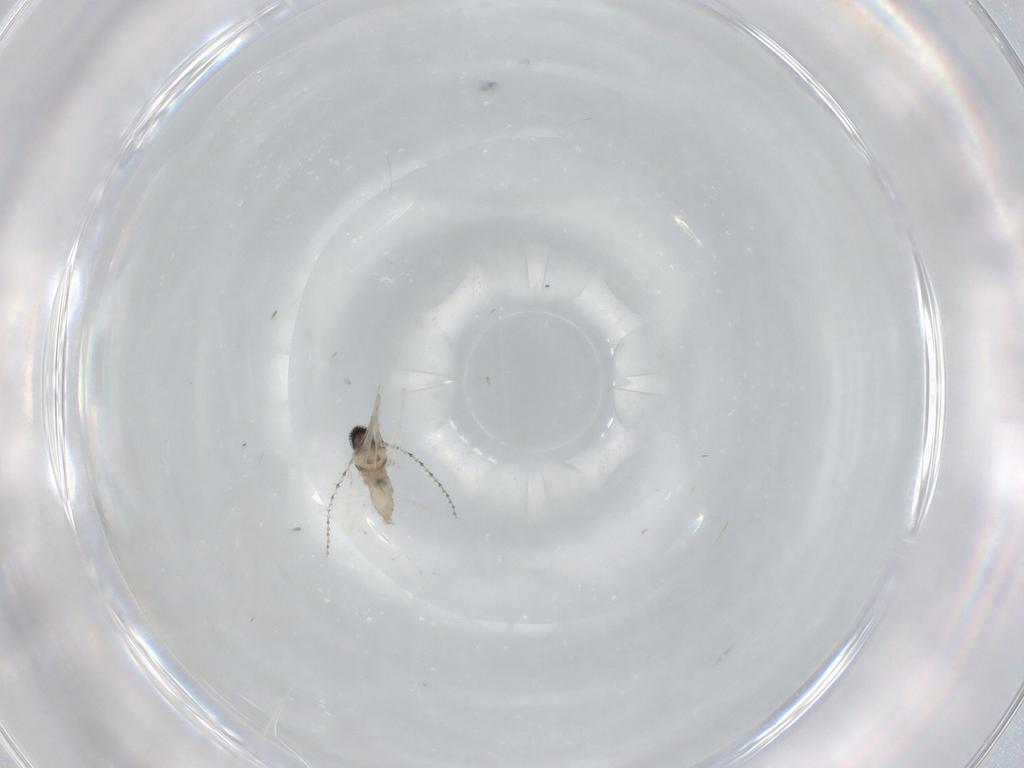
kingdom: Animalia
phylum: Arthropoda
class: Insecta
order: Diptera
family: Cecidomyiidae
